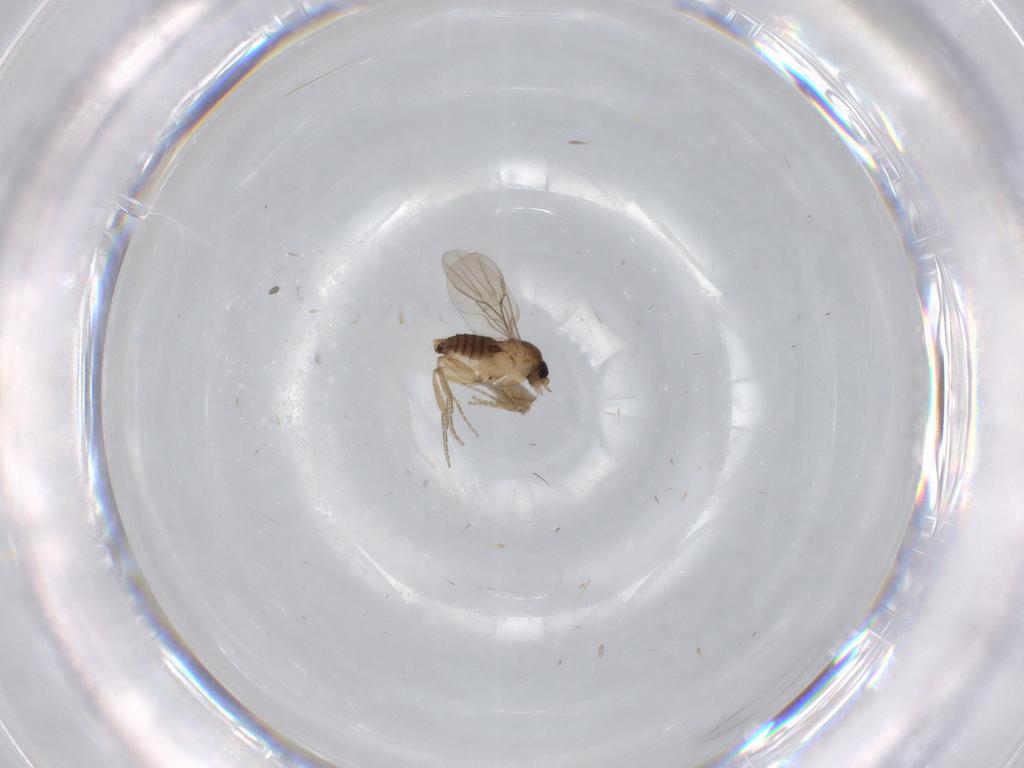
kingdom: Animalia
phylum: Arthropoda
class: Insecta
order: Diptera
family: Phoridae
